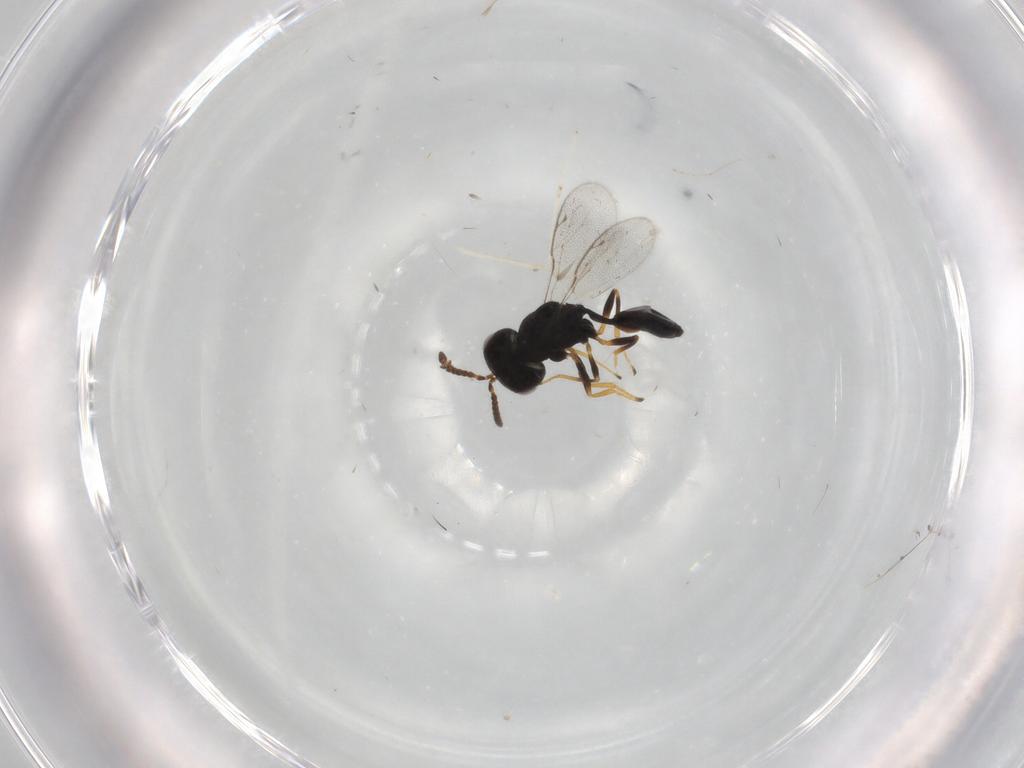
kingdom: Animalia
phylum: Arthropoda
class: Insecta
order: Hymenoptera
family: Pteromalidae
